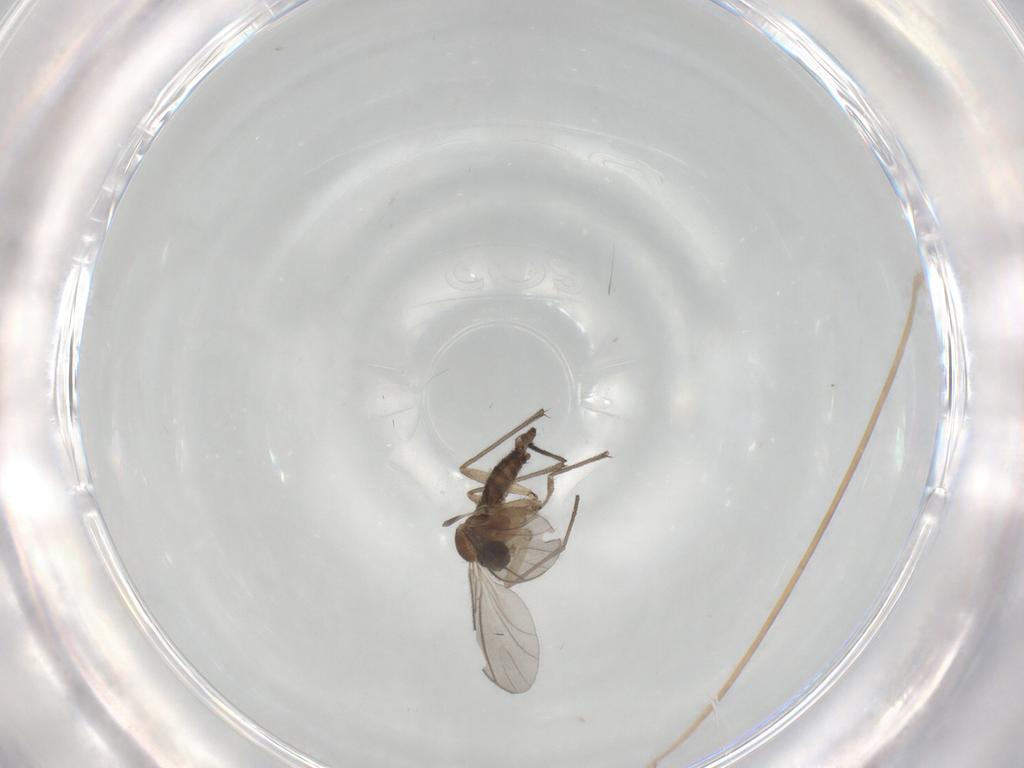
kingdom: Animalia
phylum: Arthropoda
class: Insecta
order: Diptera
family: Sciaridae
